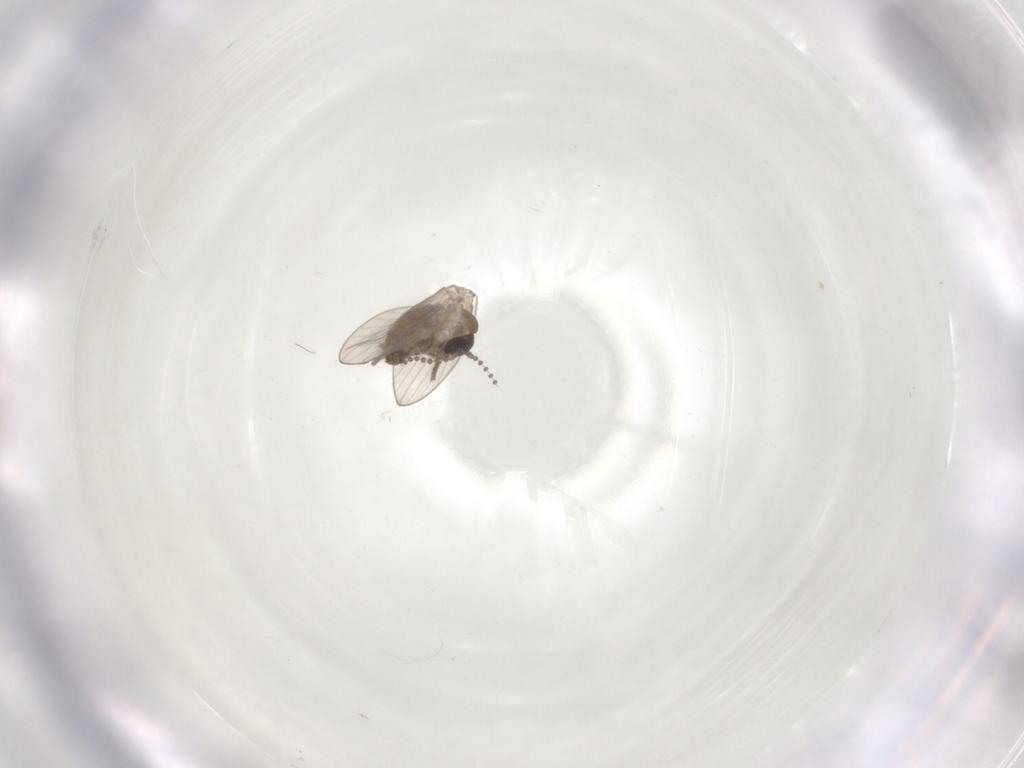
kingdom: Animalia
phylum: Arthropoda
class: Insecta
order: Diptera
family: Psychodidae
